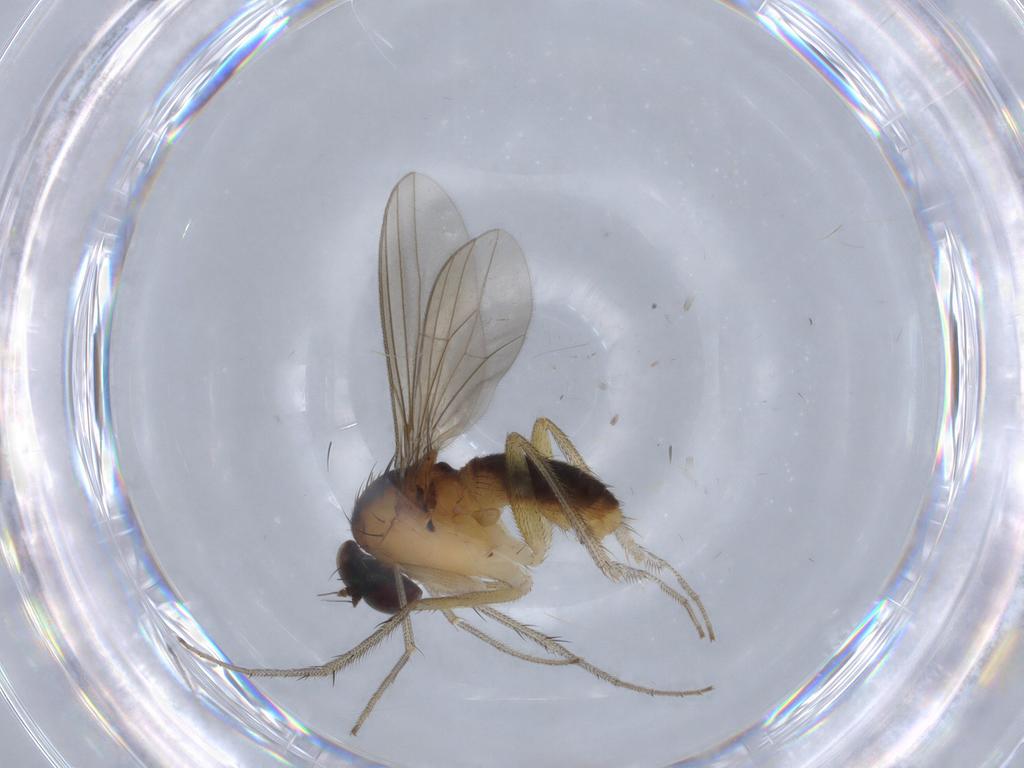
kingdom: Animalia
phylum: Arthropoda
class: Insecta
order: Diptera
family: Dolichopodidae
